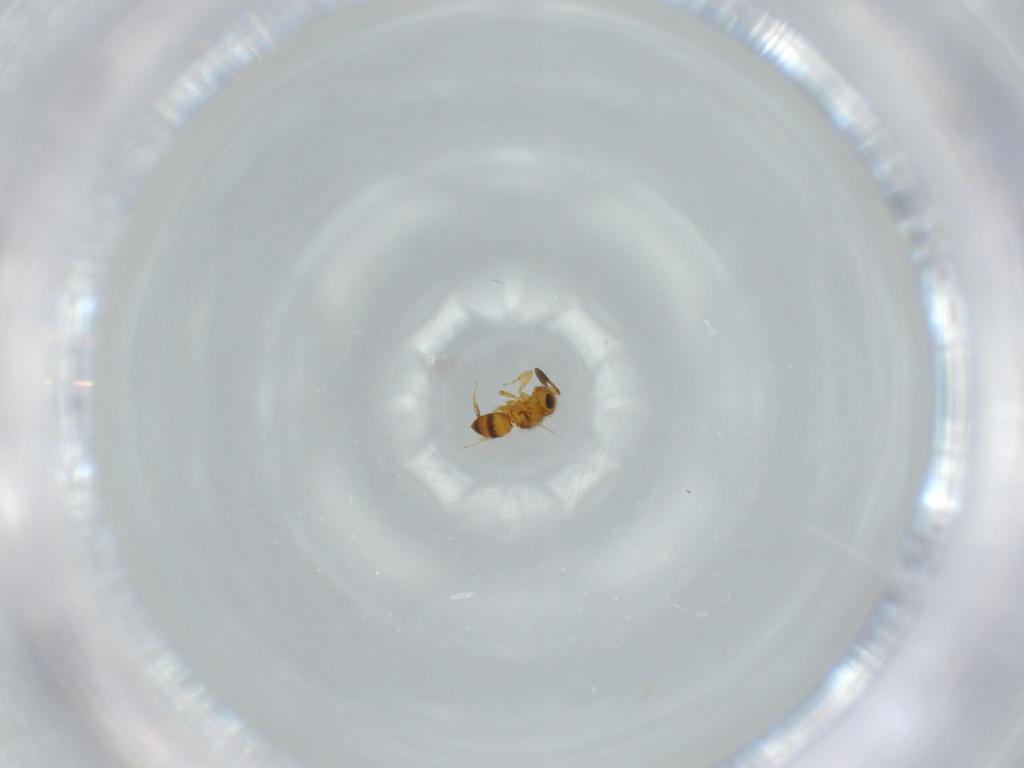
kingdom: Animalia
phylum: Arthropoda
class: Insecta
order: Hymenoptera
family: Scelionidae
